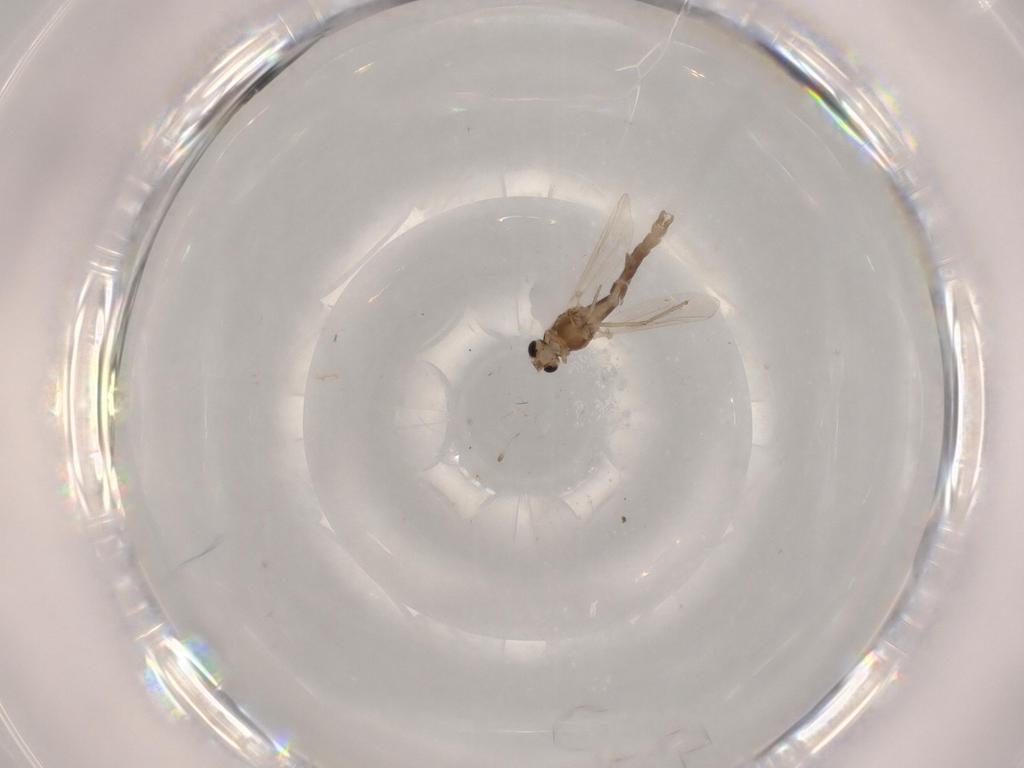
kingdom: Animalia
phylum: Arthropoda
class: Insecta
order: Diptera
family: Chironomidae
